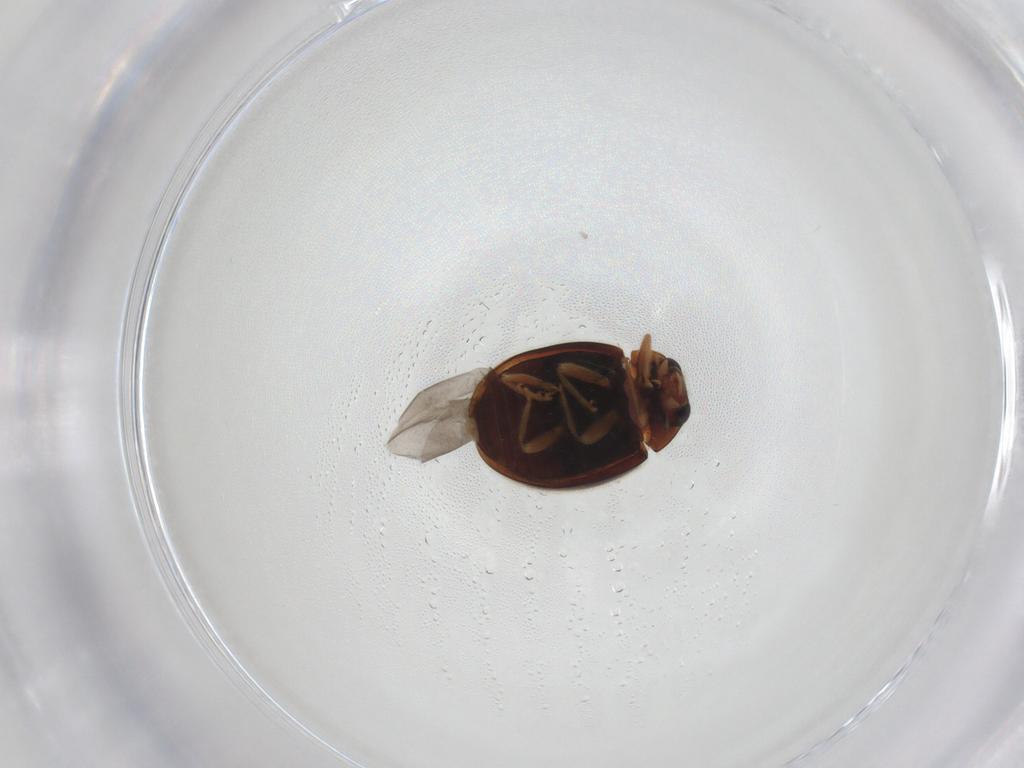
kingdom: Animalia
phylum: Arthropoda
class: Insecta
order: Coleoptera
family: Coccinellidae
